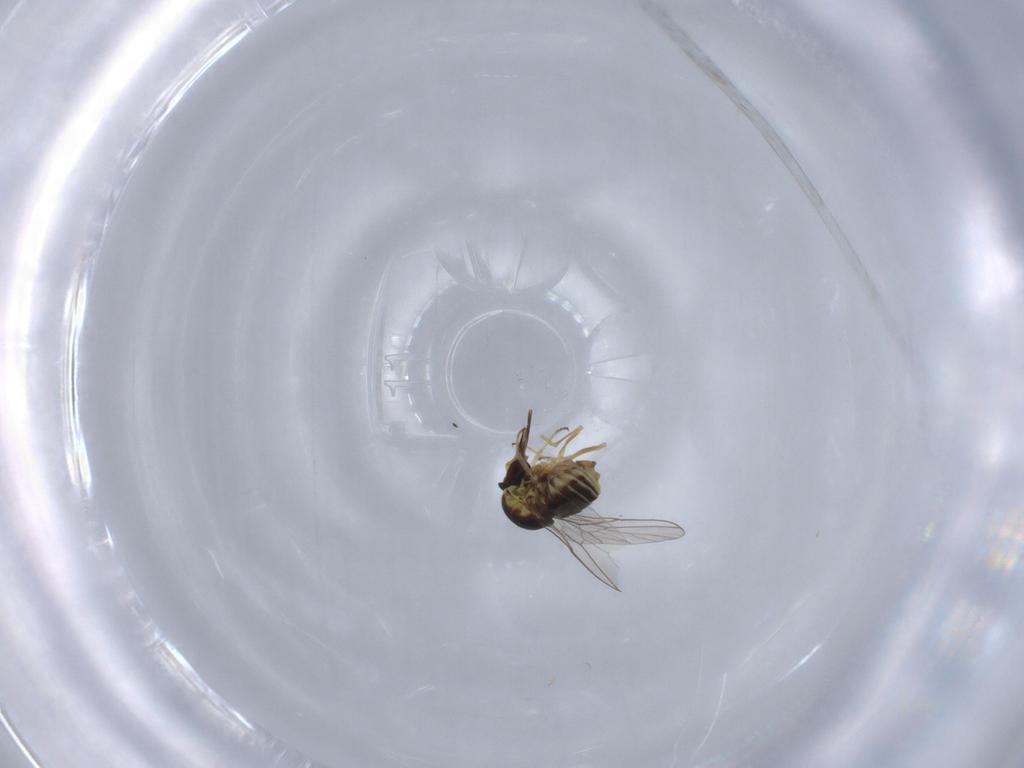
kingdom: Animalia
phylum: Arthropoda
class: Insecta
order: Diptera
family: Mythicomyiidae
